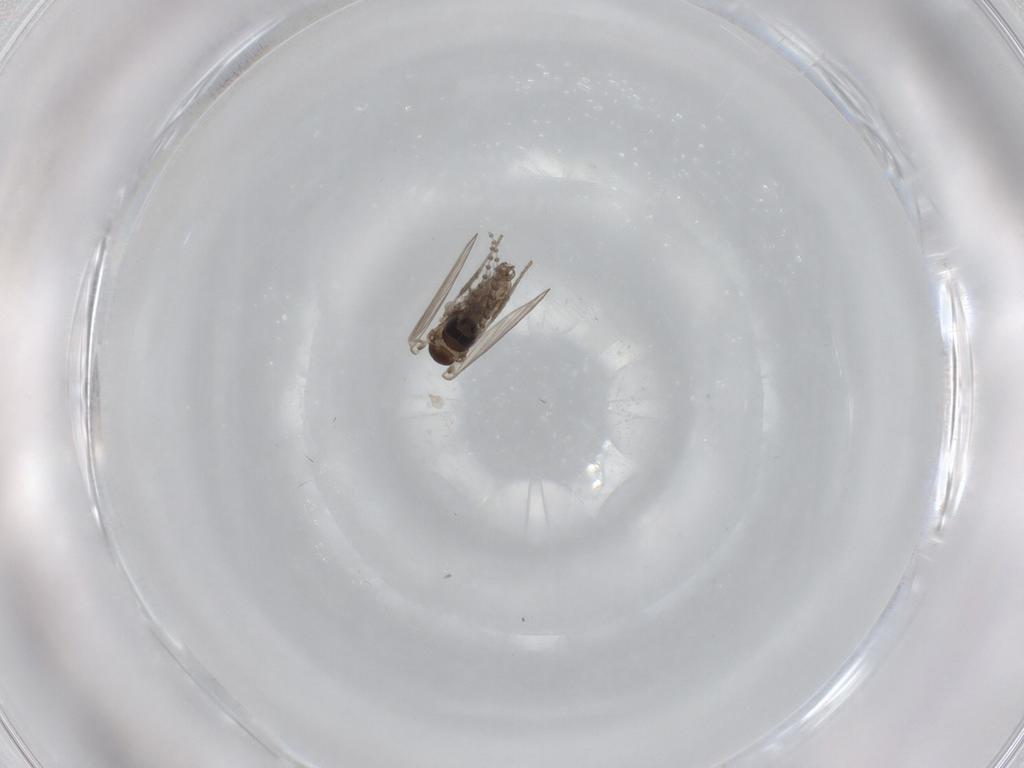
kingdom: Animalia
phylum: Arthropoda
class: Insecta
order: Diptera
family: Psychodidae
